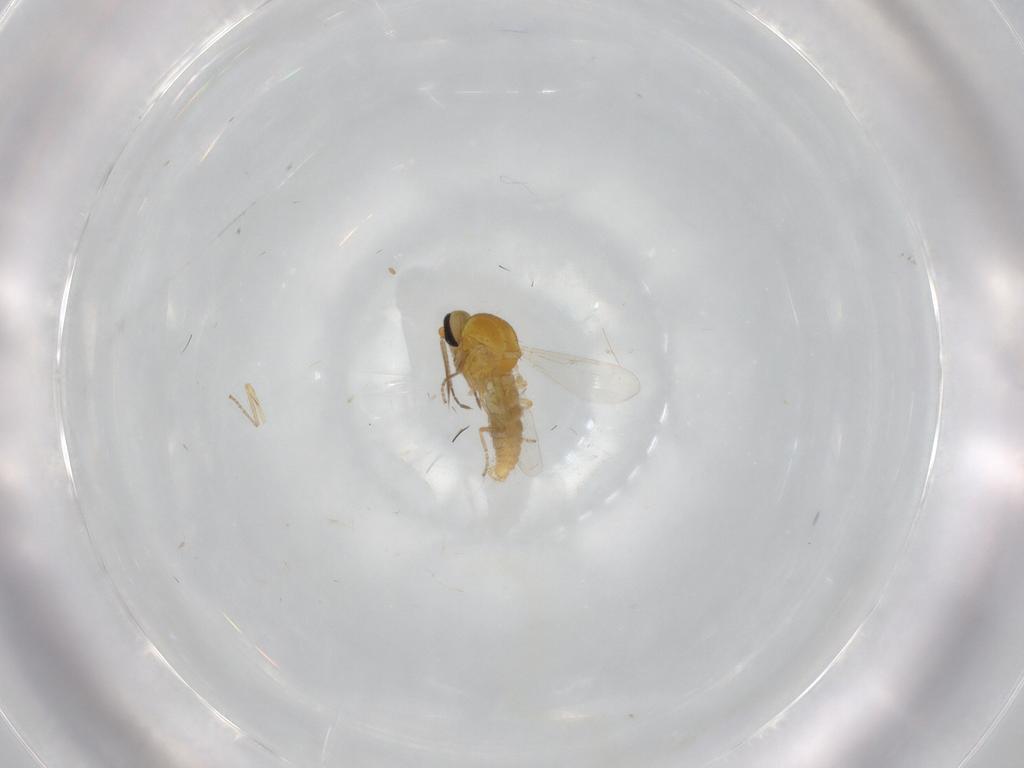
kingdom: Animalia
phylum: Arthropoda
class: Insecta
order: Diptera
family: Ceratopogonidae
